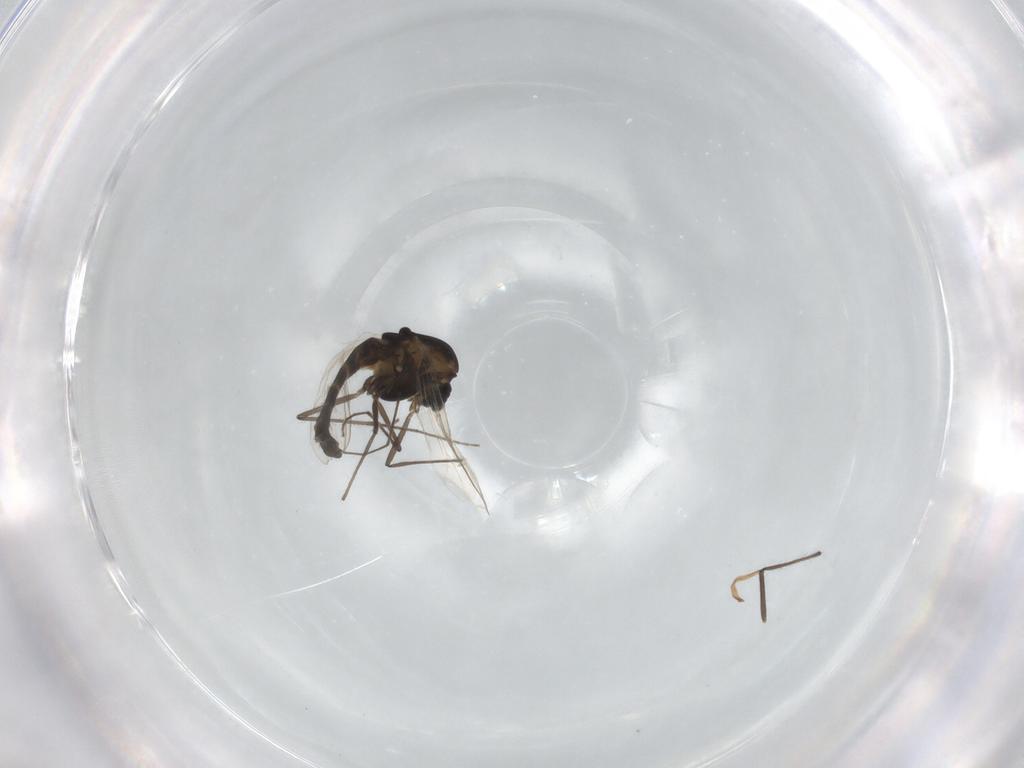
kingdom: Animalia
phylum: Arthropoda
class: Insecta
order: Diptera
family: Chironomidae
